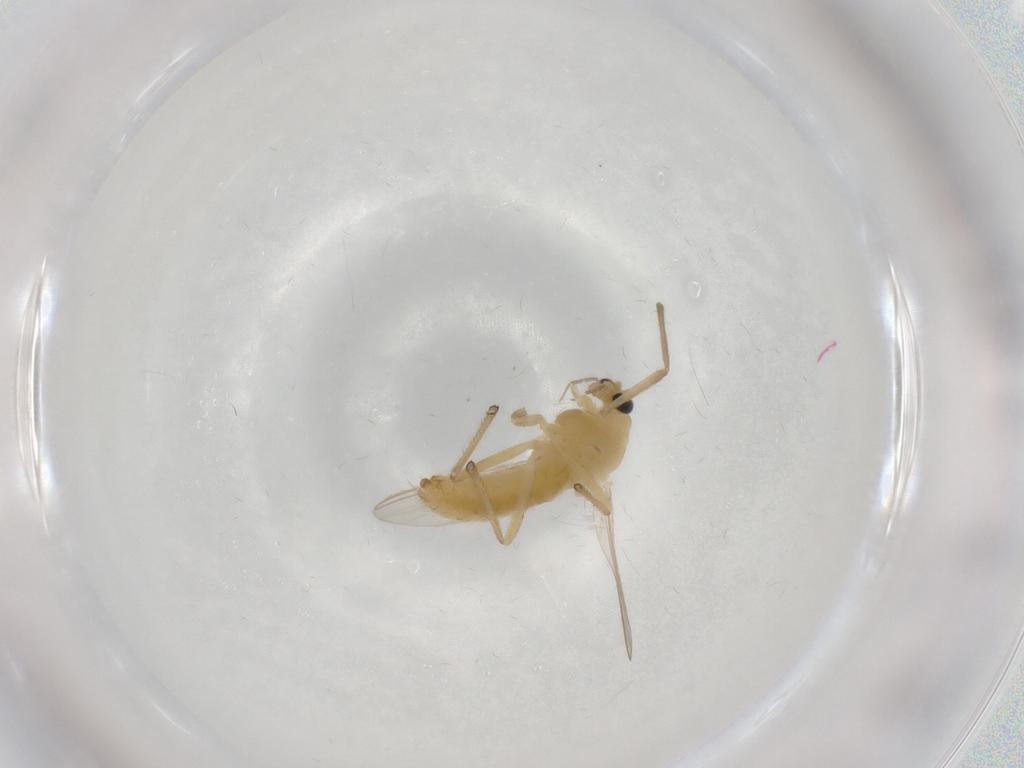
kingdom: Animalia
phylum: Arthropoda
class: Insecta
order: Diptera
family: Chironomidae
